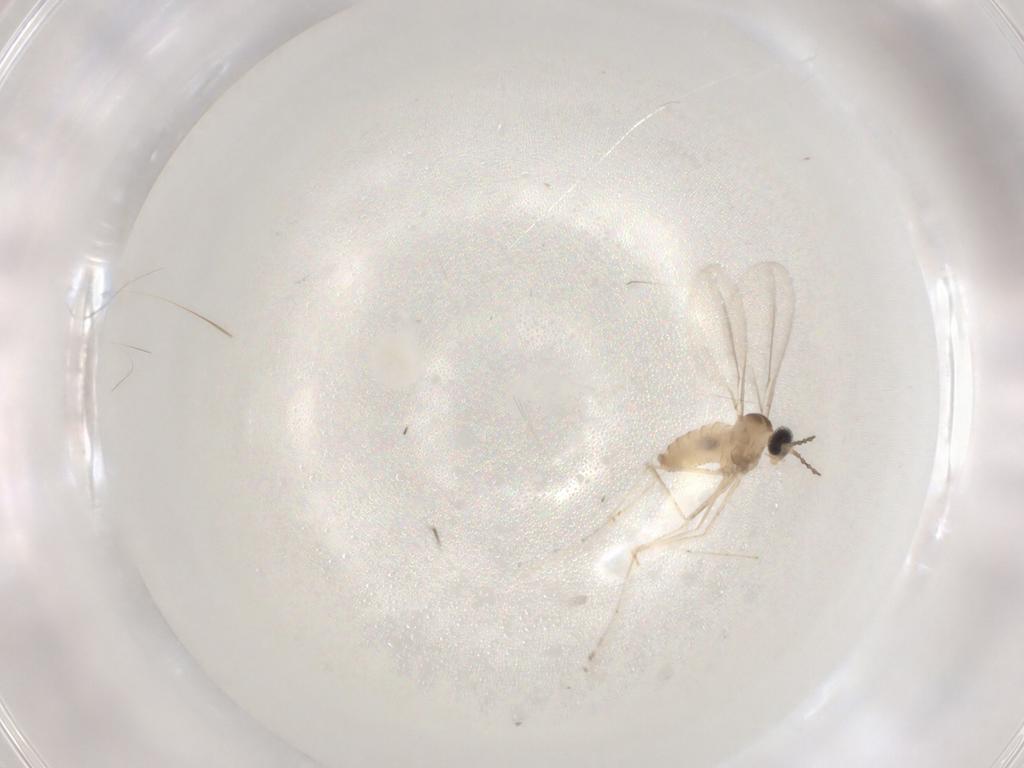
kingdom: Animalia
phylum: Arthropoda
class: Insecta
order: Diptera
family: Cecidomyiidae
